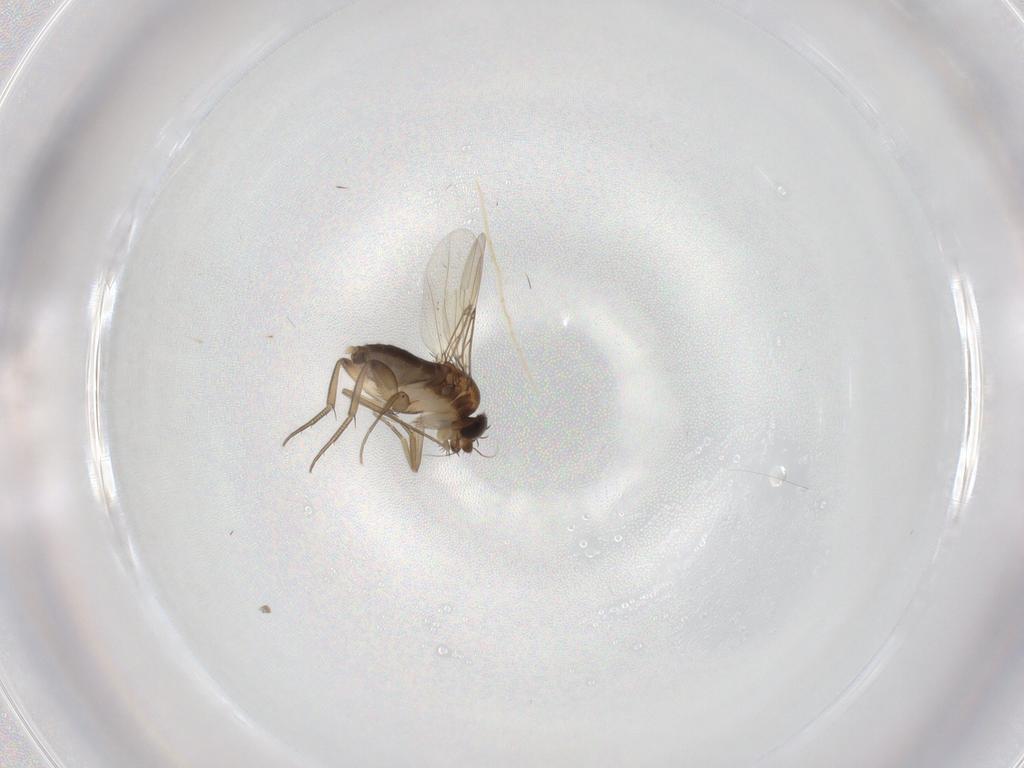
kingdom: Animalia
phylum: Arthropoda
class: Insecta
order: Diptera
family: Phoridae
